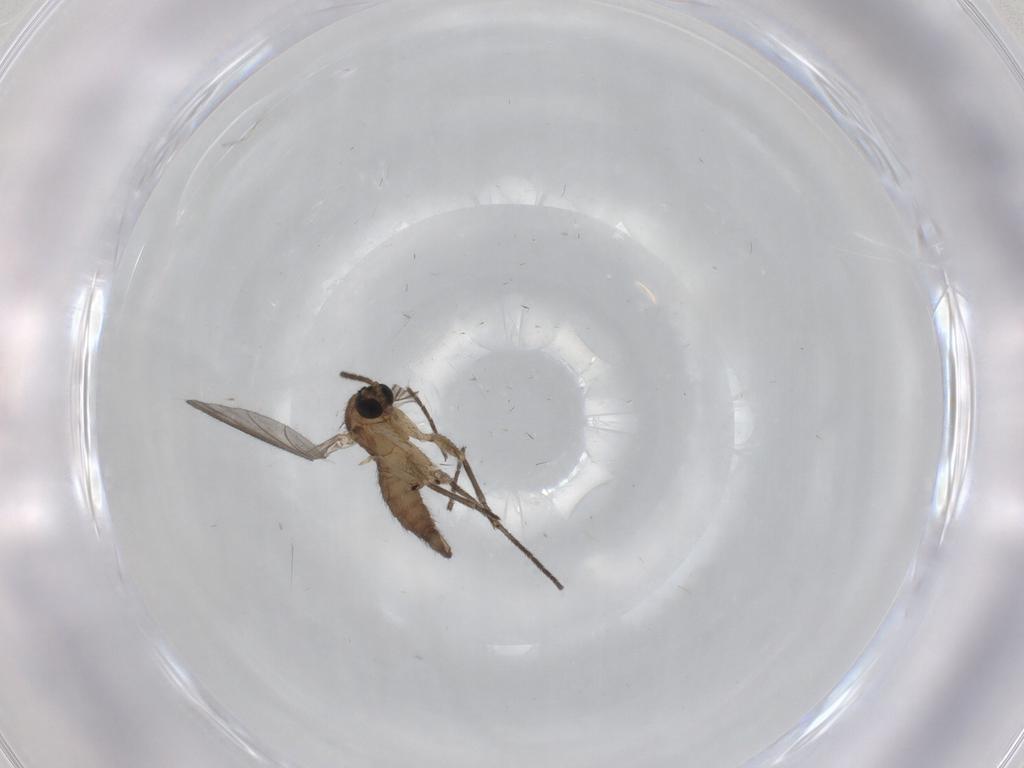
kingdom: Animalia
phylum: Arthropoda
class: Insecta
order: Diptera
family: Sciaridae
